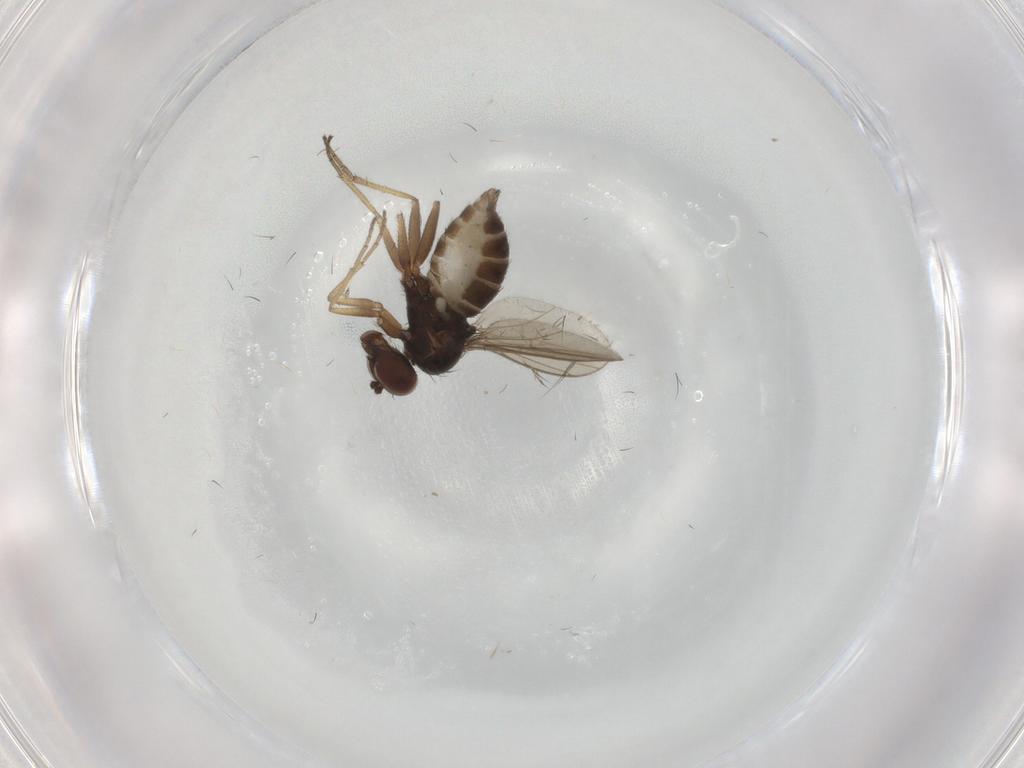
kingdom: Animalia
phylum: Arthropoda
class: Insecta
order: Diptera
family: Dolichopodidae
